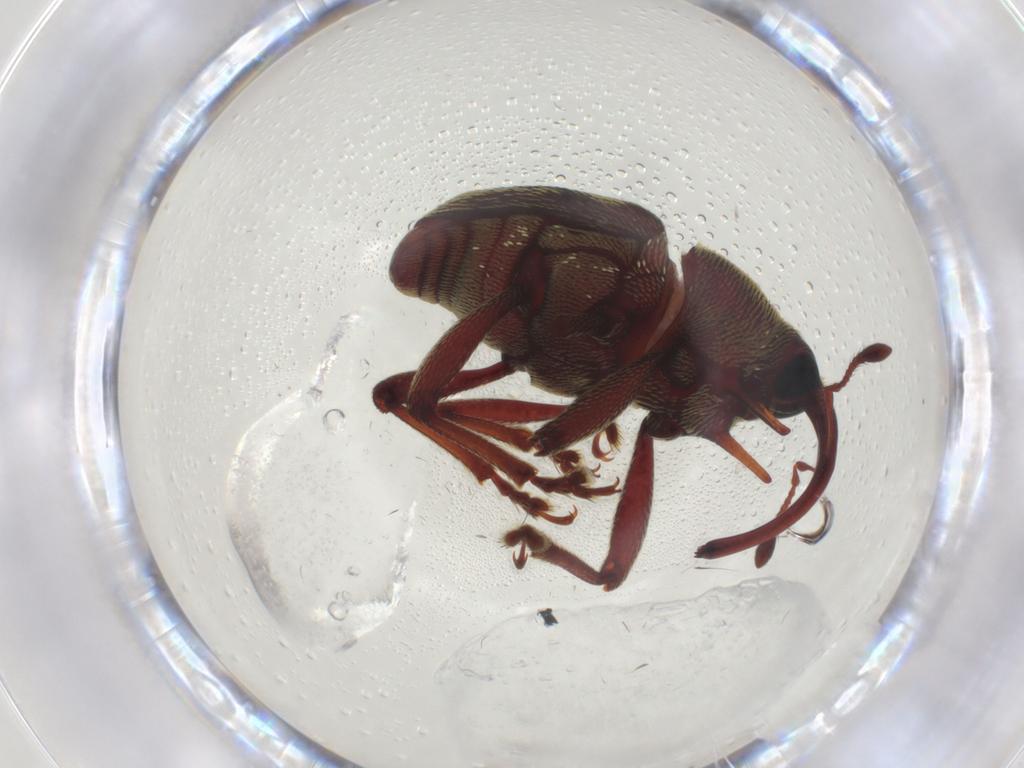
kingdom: Animalia
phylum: Arthropoda
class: Insecta
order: Coleoptera
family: Curculionidae
